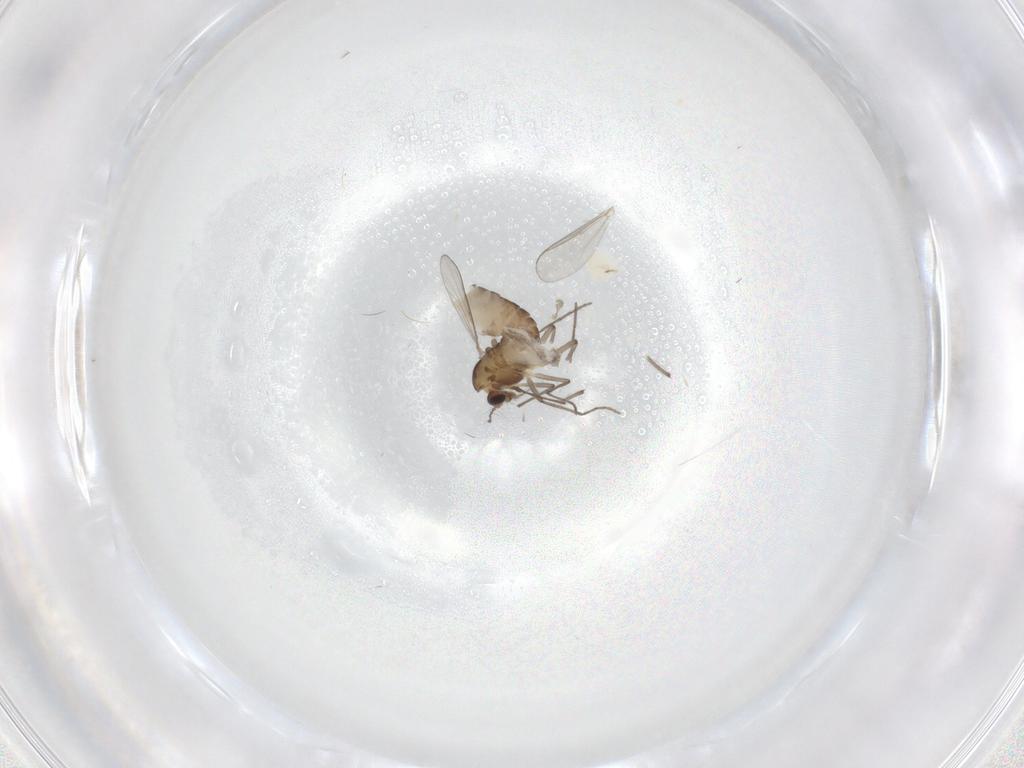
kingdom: Animalia
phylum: Arthropoda
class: Insecta
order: Diptera
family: Chironomidae
